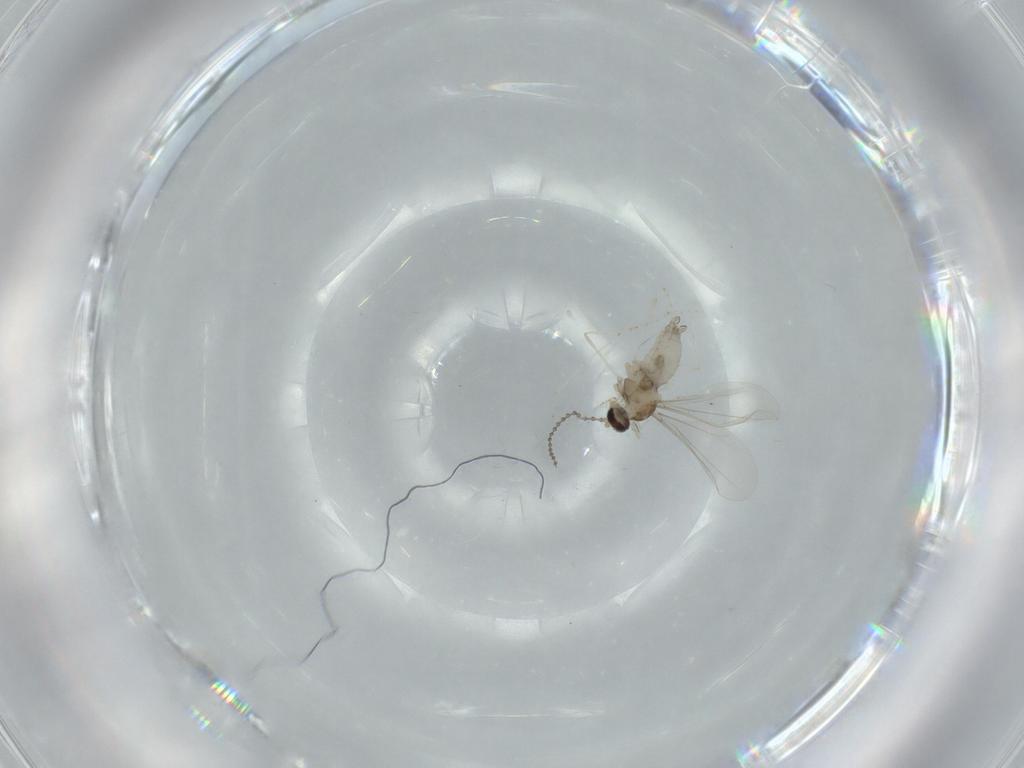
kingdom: Animalia
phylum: Arthropoda
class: Insecta
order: Diptera
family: Cecidomyiidae
